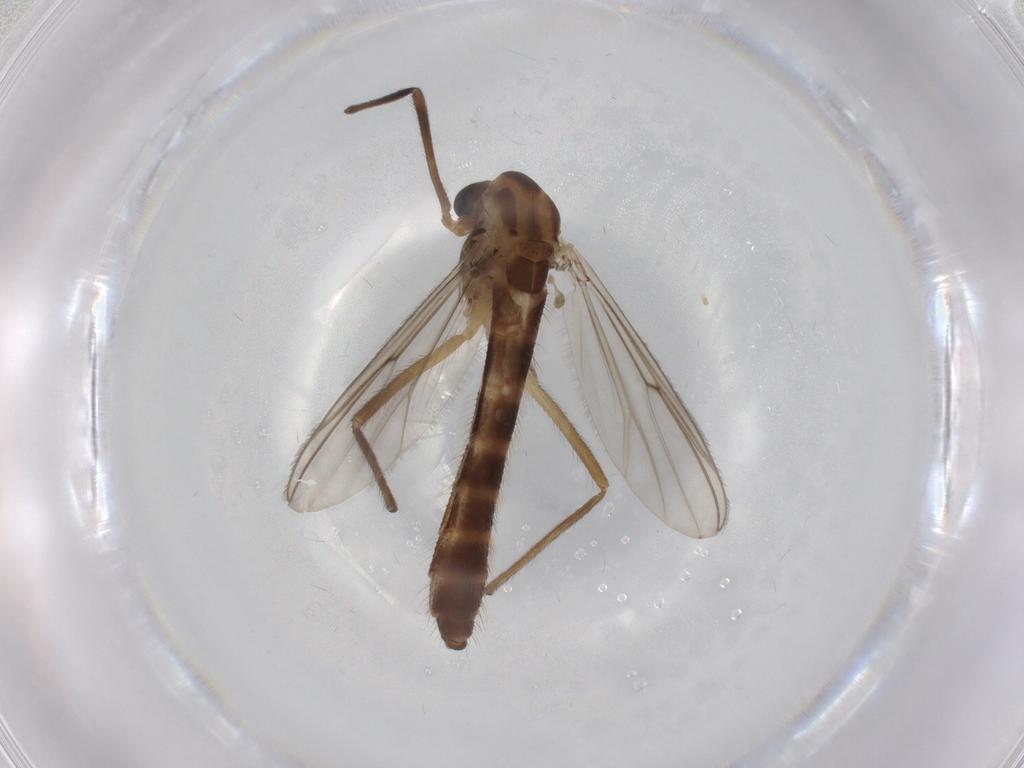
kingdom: Animalia
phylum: Arthropoda
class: Insecta
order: Diptera
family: Chironomidae
